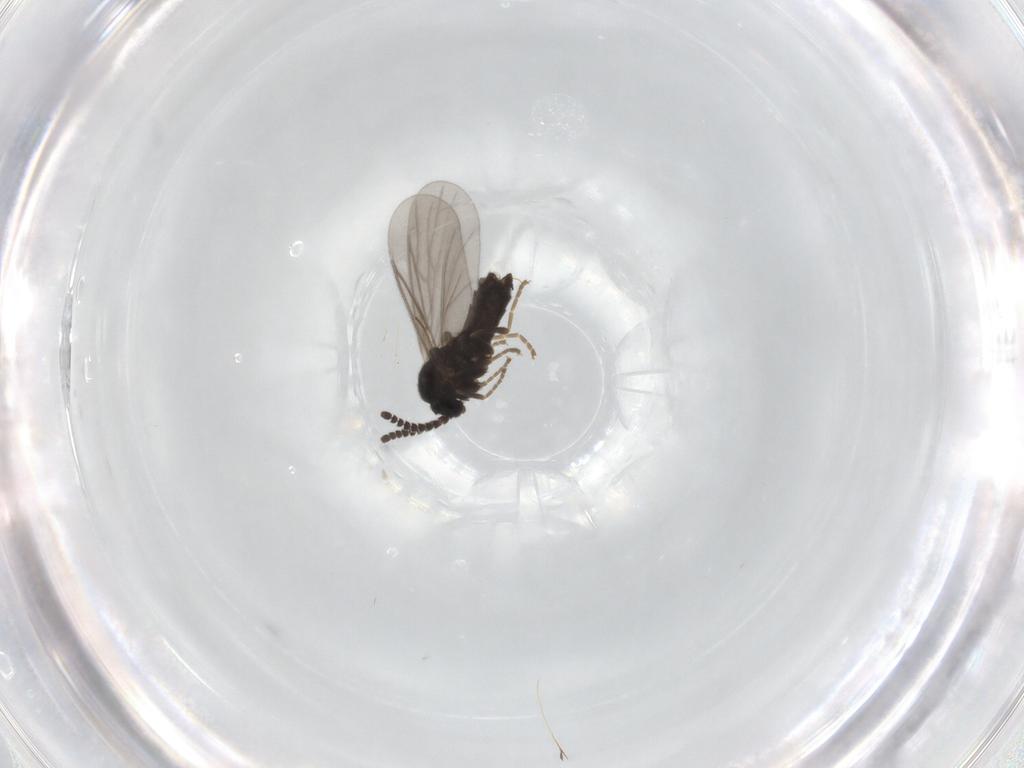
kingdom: Animalia
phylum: Arthropoda
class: Insecta
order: Diptera
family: Scatopsidae
